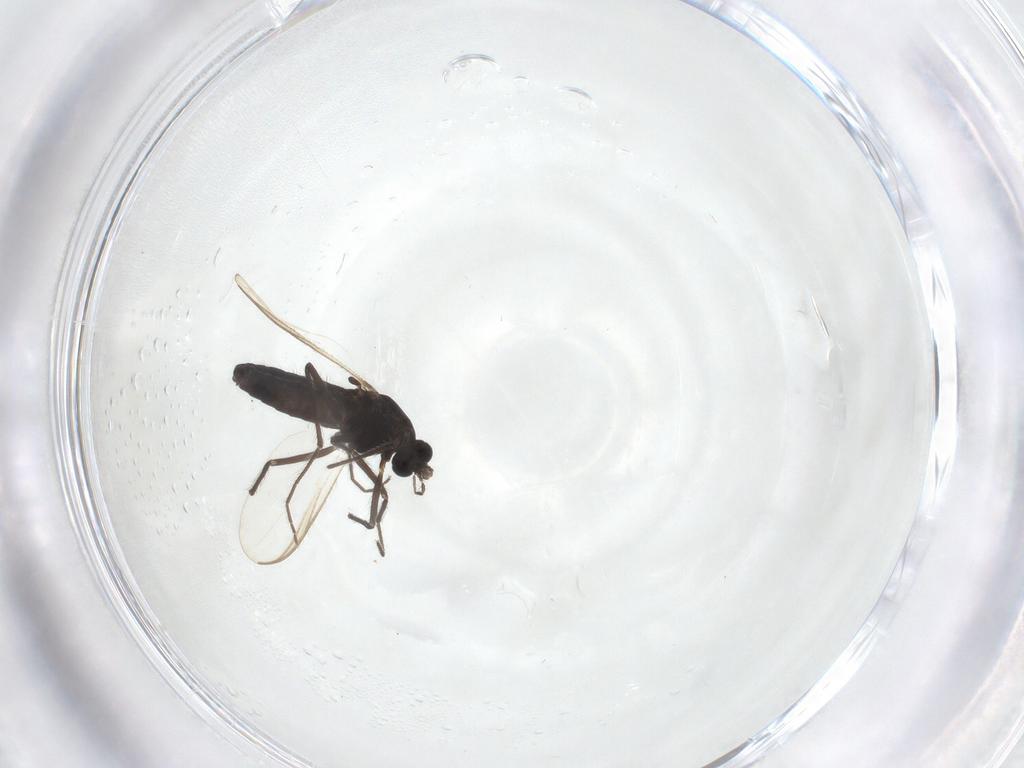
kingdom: Animalia
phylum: Arthropoda
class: Insecta
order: Diptera
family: Chironomidae
